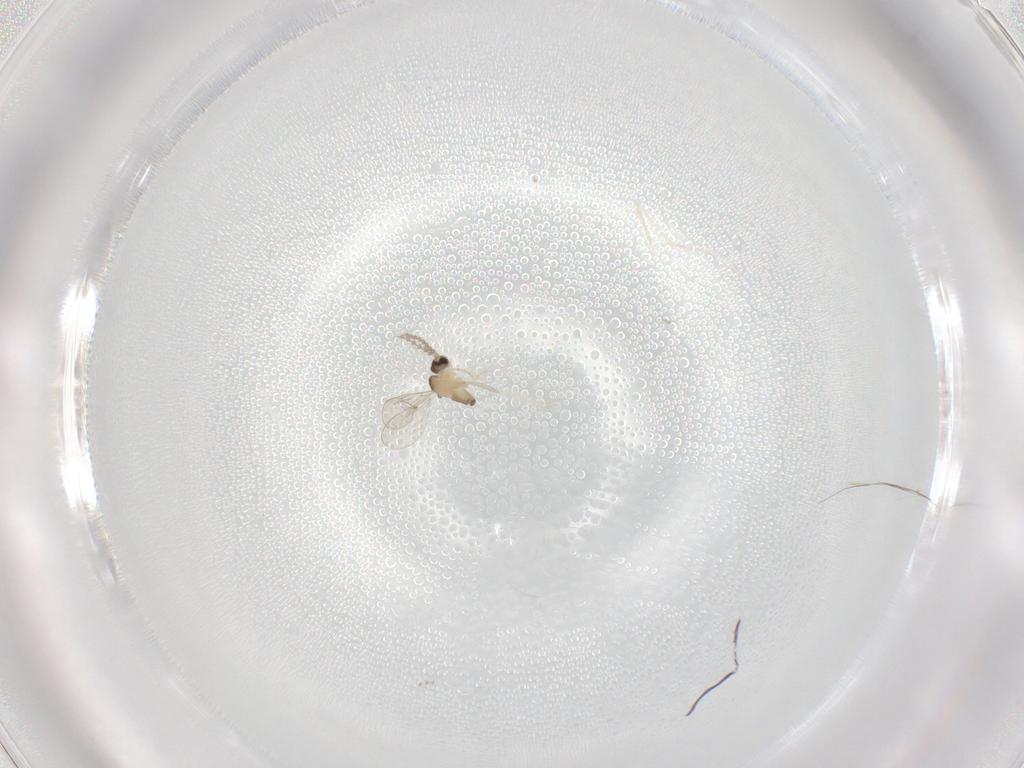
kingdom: Animalia
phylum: Arthropoda
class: Insecta
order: Diptera
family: Cecidomyiidae
